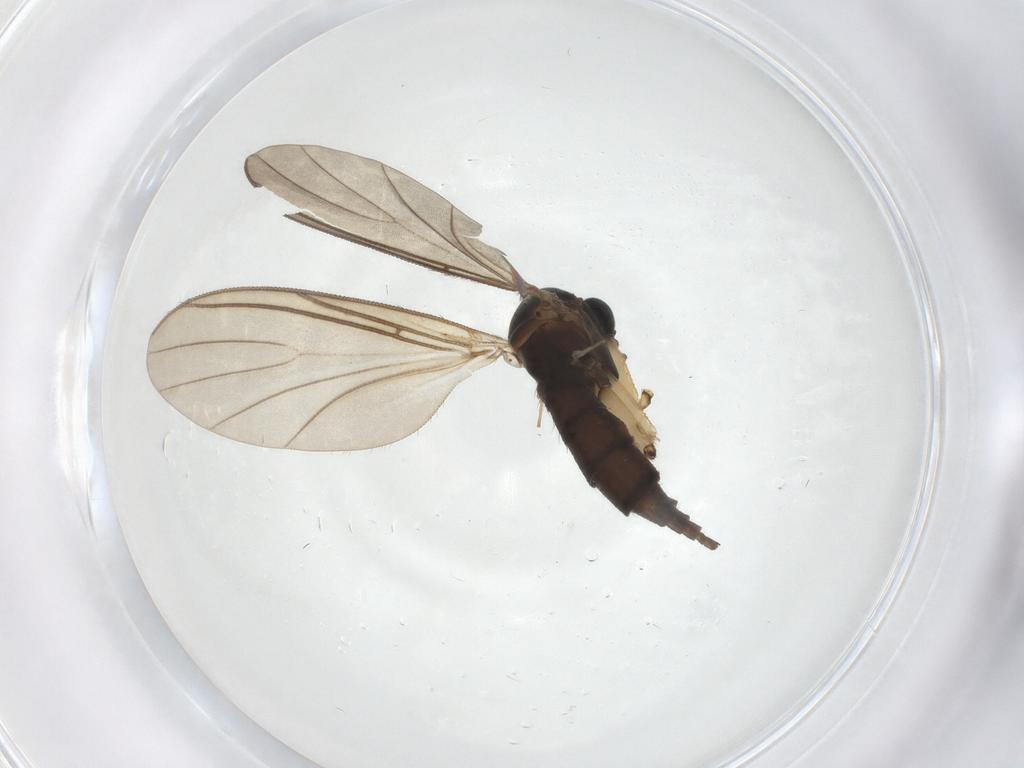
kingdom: Animalia
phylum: Arthropoda
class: Insecta
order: Diptera
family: Sciaridae
